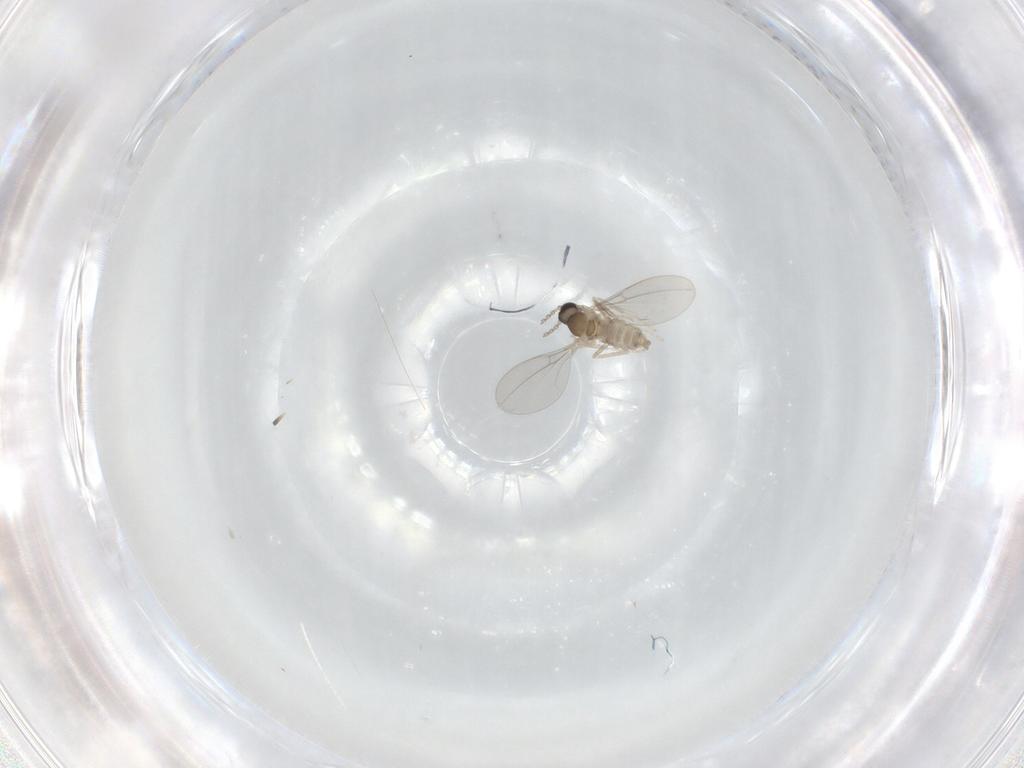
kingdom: Animalia
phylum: Arthropoda
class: Insecta
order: Diptera
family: Cecidomyiidae
